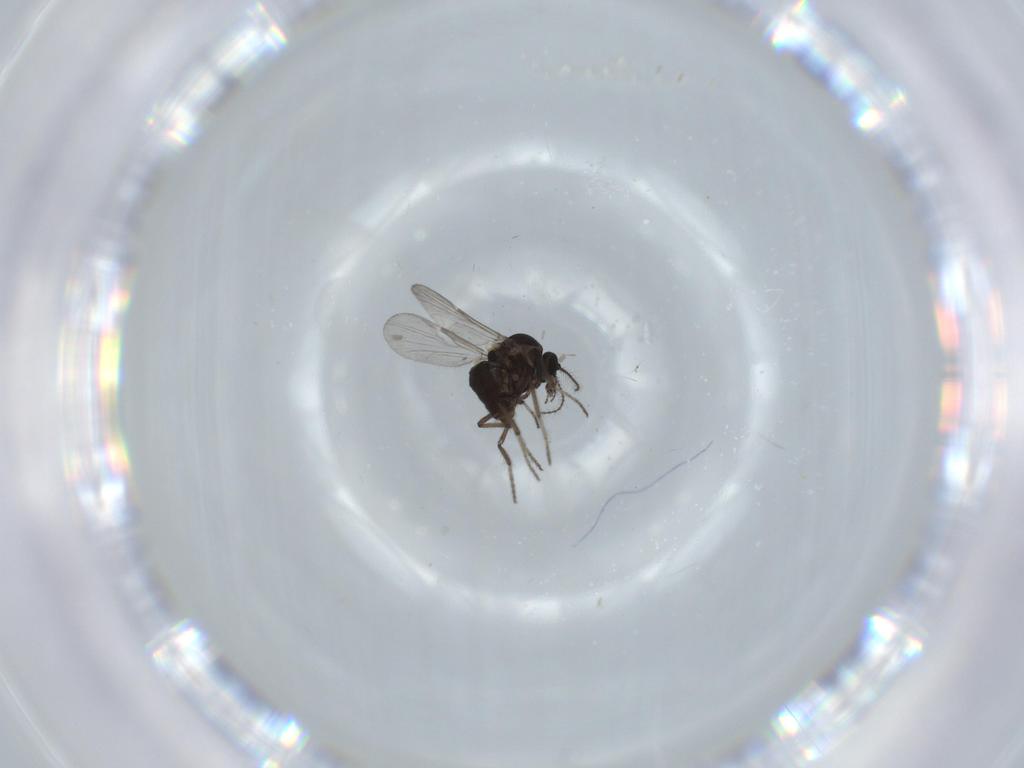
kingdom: Animalia
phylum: Arthropoda
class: Insecta
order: Diptera
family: Ceratopogonidae
